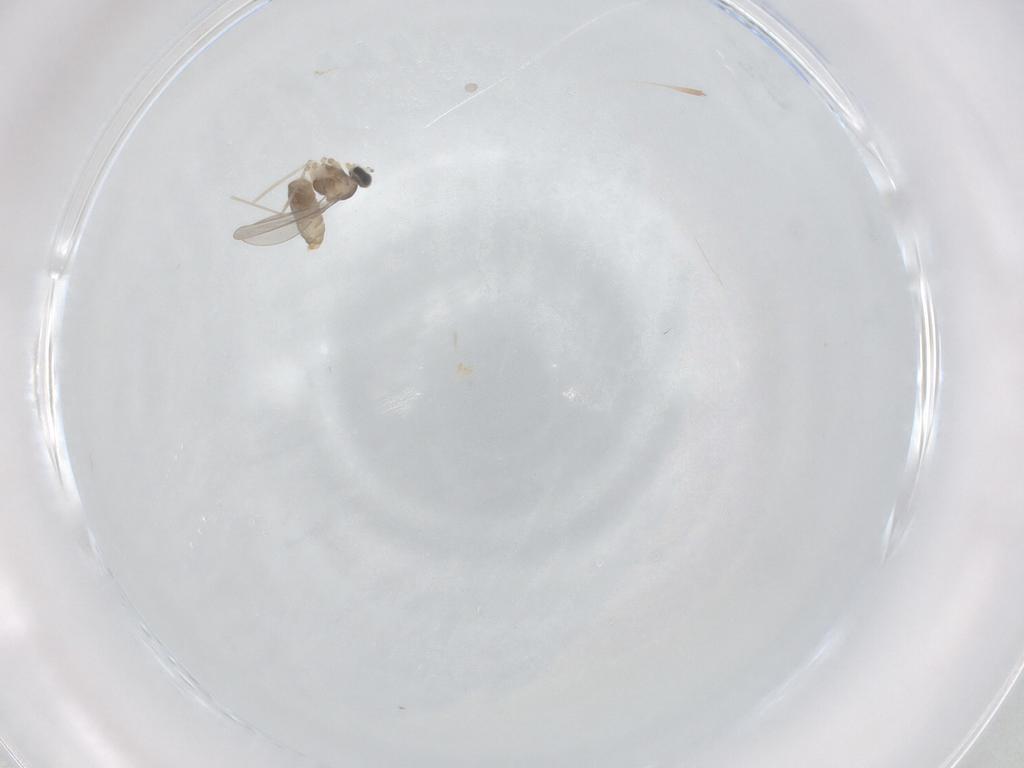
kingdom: Animalia
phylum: Arthropoda
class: Insecta
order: Diptera
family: Cecidomyiidae
